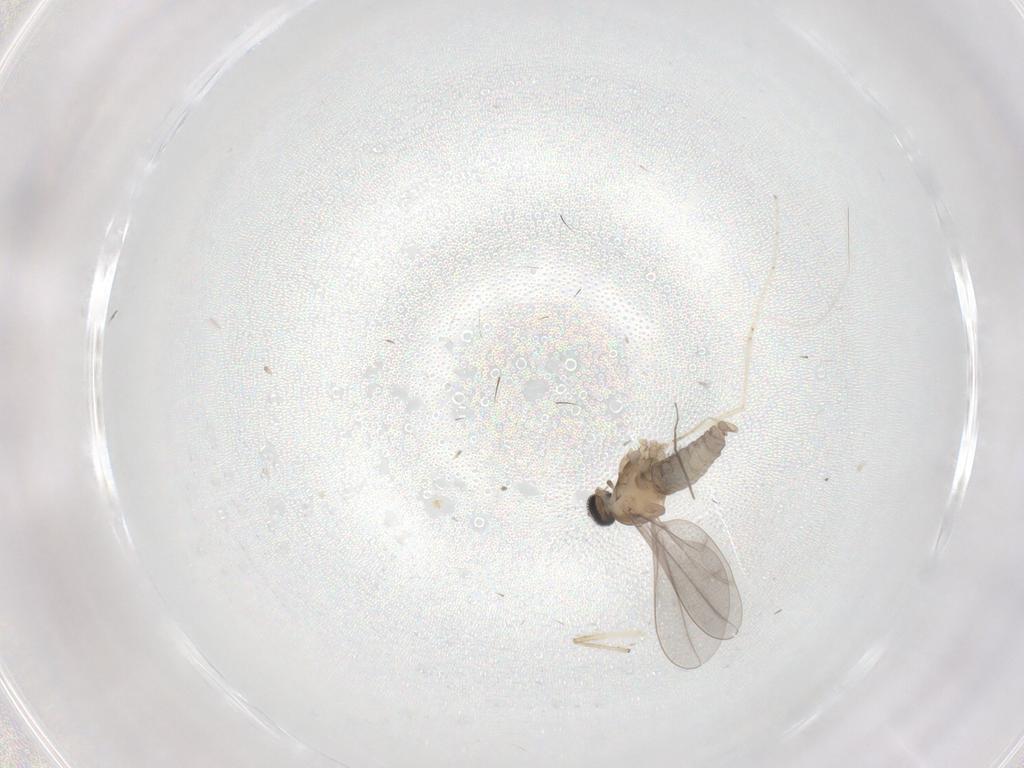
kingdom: Animalia
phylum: Arthropoda
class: Insecta
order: Diptera
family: Cecidomyiidae
